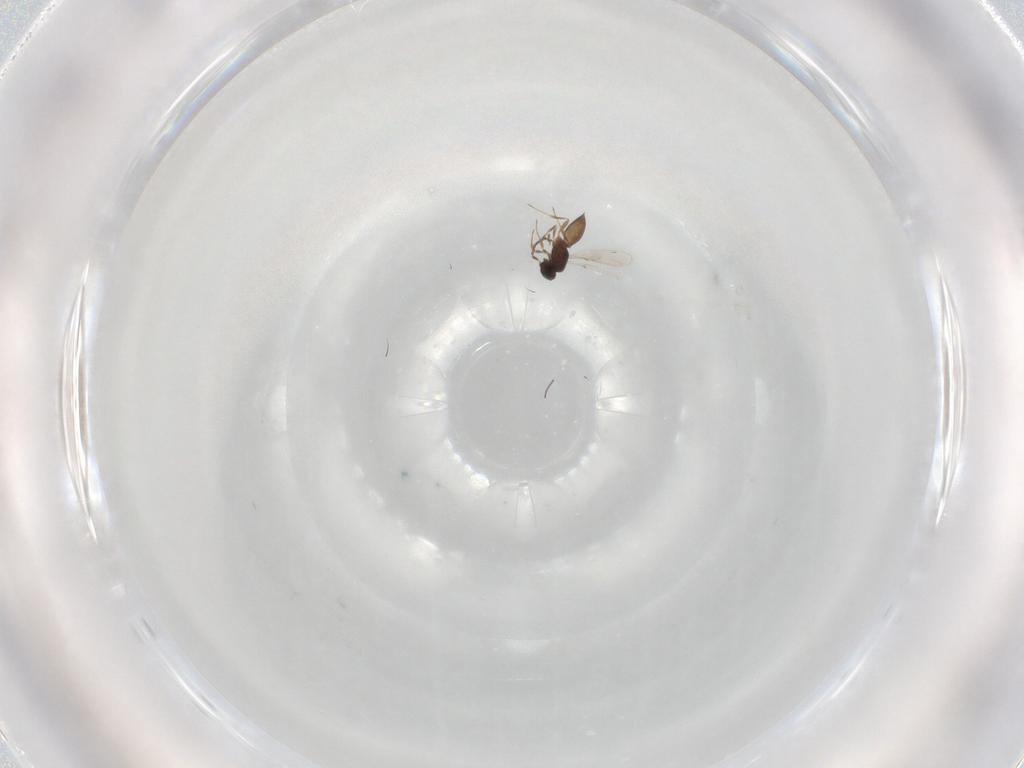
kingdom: Animalia
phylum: Arthropoda
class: Insecta
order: Hymenoptera
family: Scelionidae
